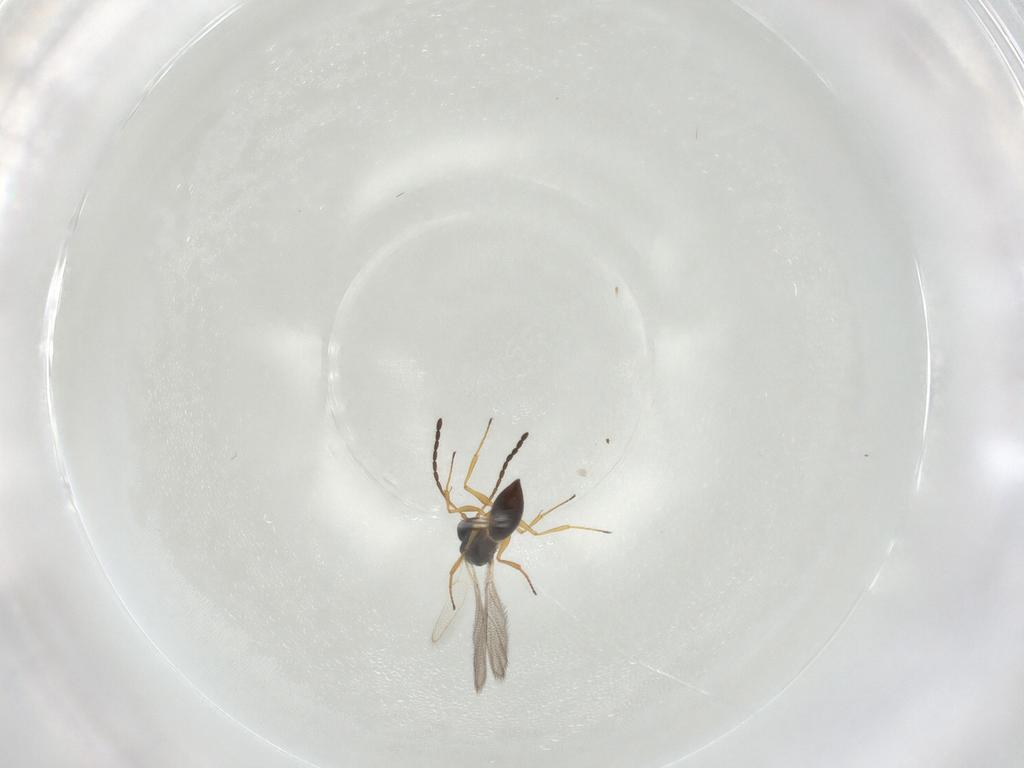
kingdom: Animalia
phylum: Arthropoda
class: Insecta
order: Hymenoptera
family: Figitidae
